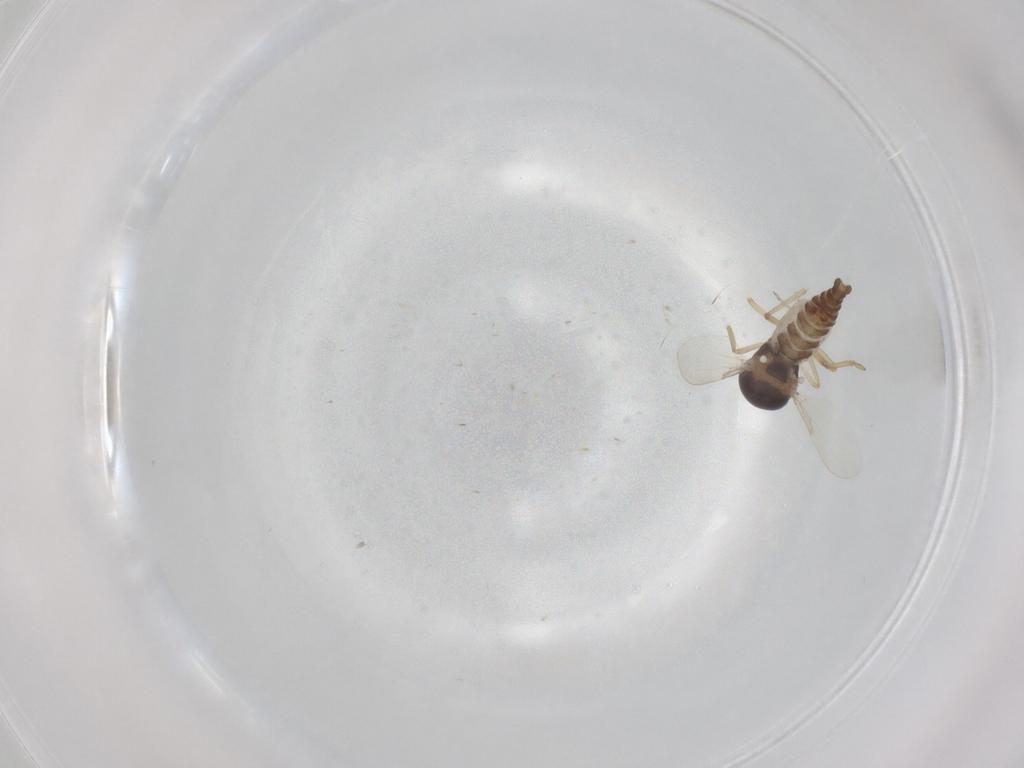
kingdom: Animalia
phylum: Arthropoda
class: Insecta
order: Diptera
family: Ceratopogonidae
